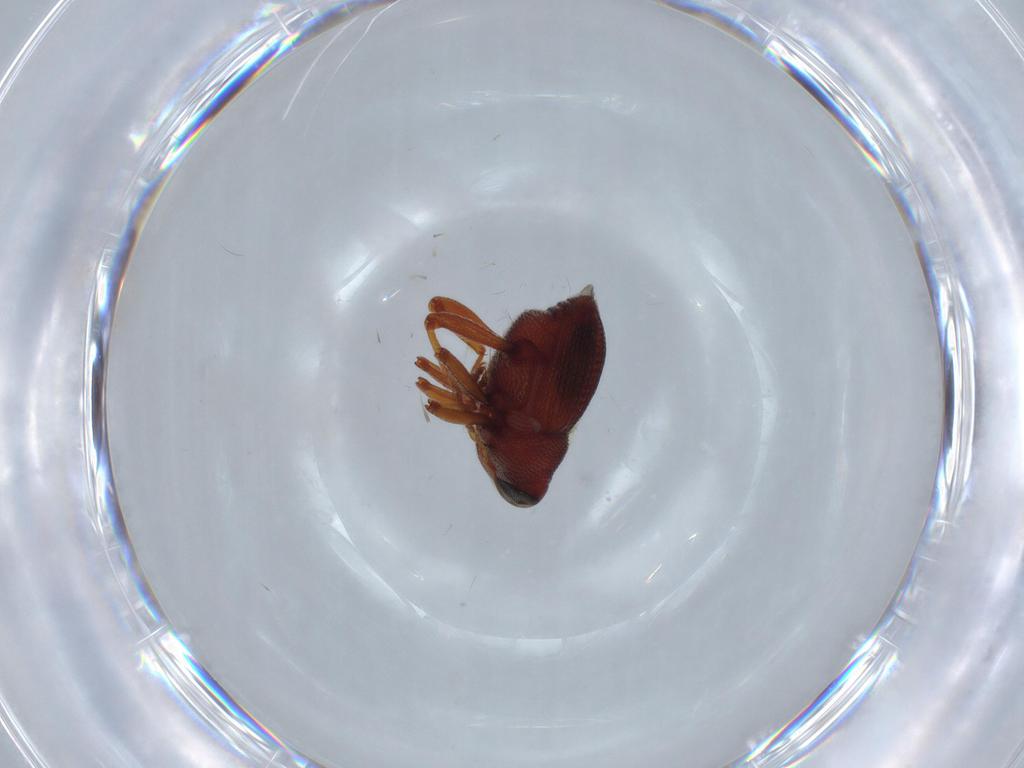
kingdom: Animalia
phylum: Arthropoda
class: Insecta
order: Coleoptera
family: Curculionidae
